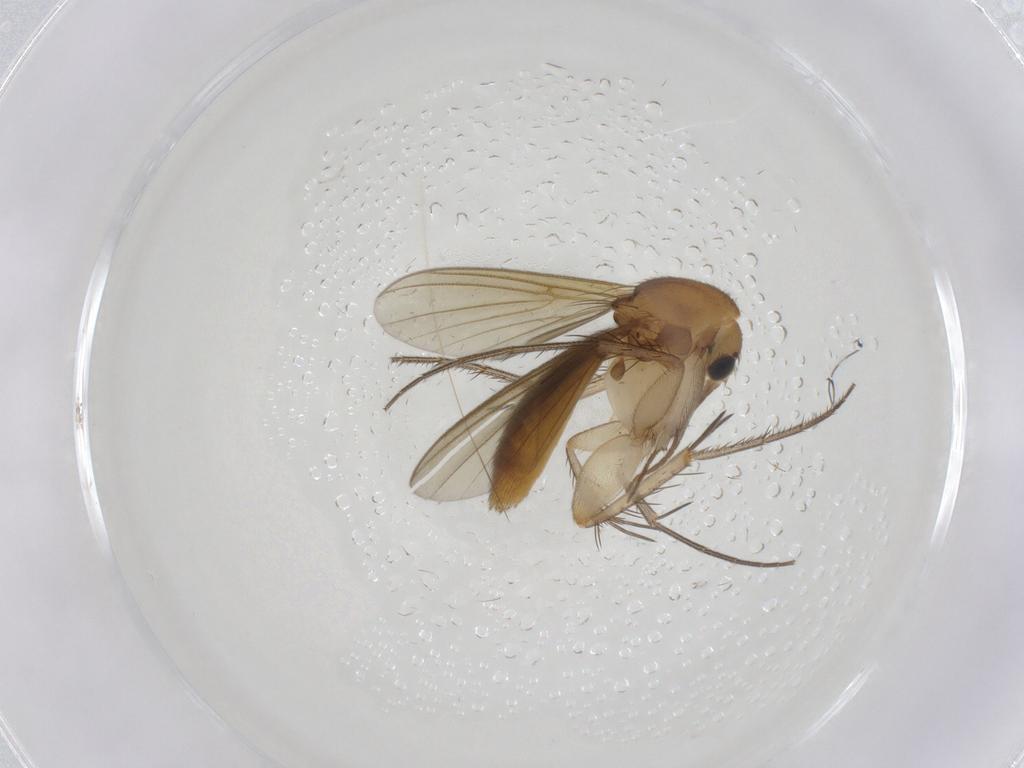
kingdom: Animalia
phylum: Arthropoda
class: Insecta
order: Diptera
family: Mycetophilidae
